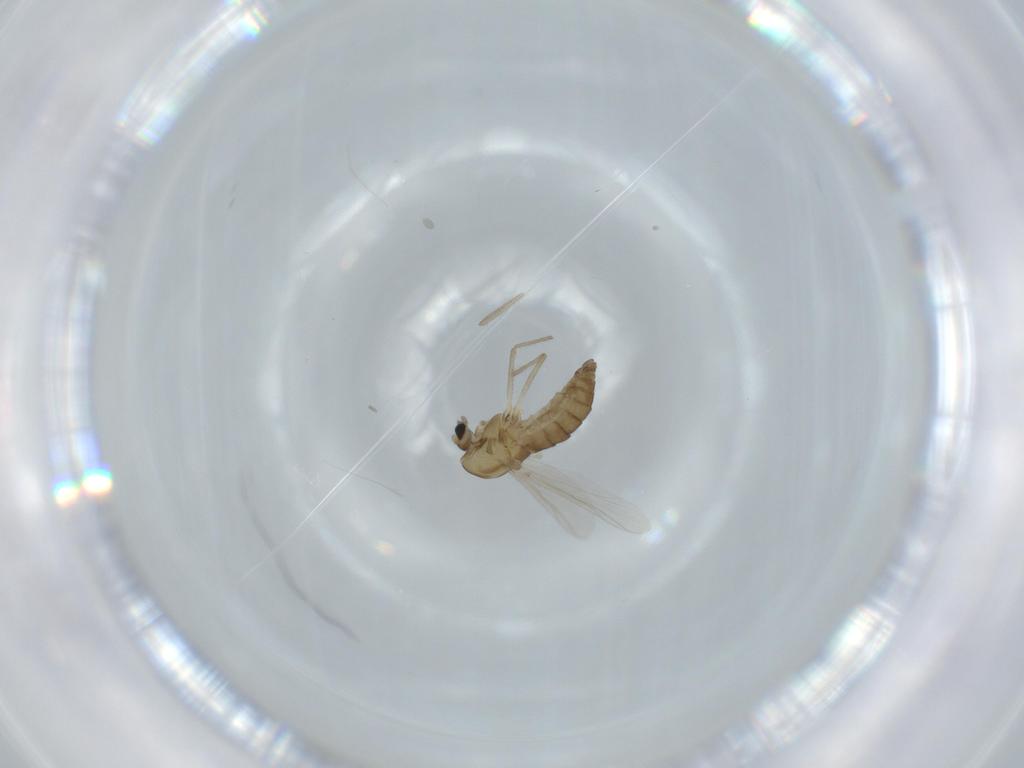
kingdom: Animalia
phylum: Arthropoda
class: Insecta
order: Diptera
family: Chironomidae
